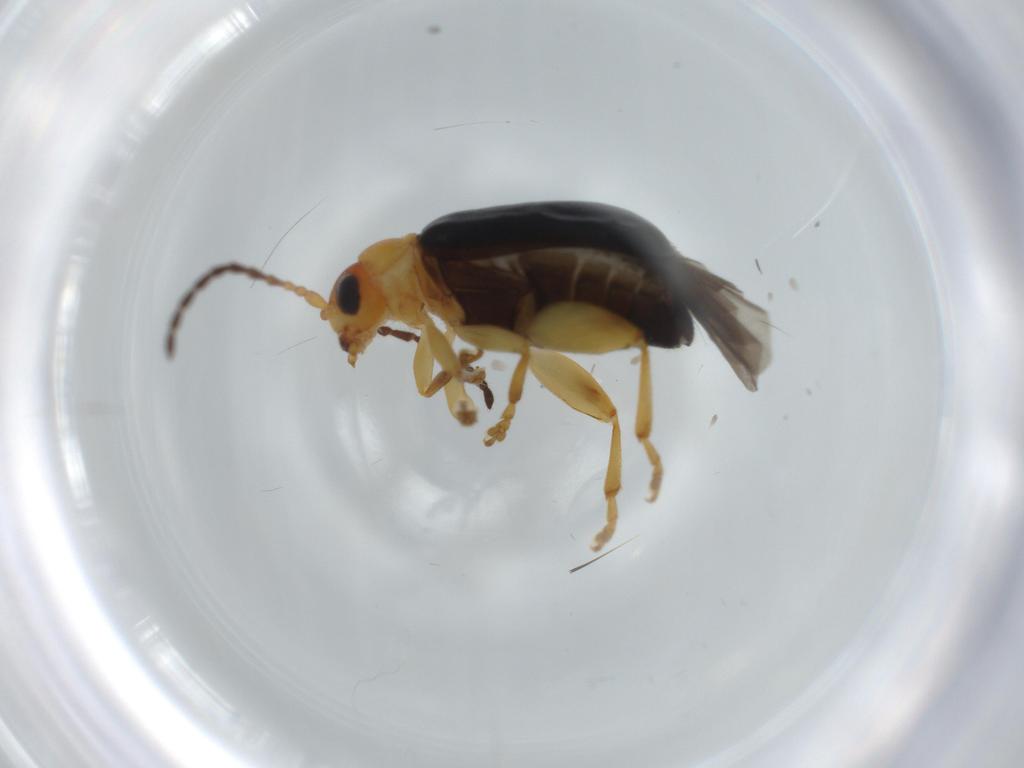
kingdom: Animalia
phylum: Arthropoda
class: Insecta
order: Coleoptera
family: Chrysomelidae
